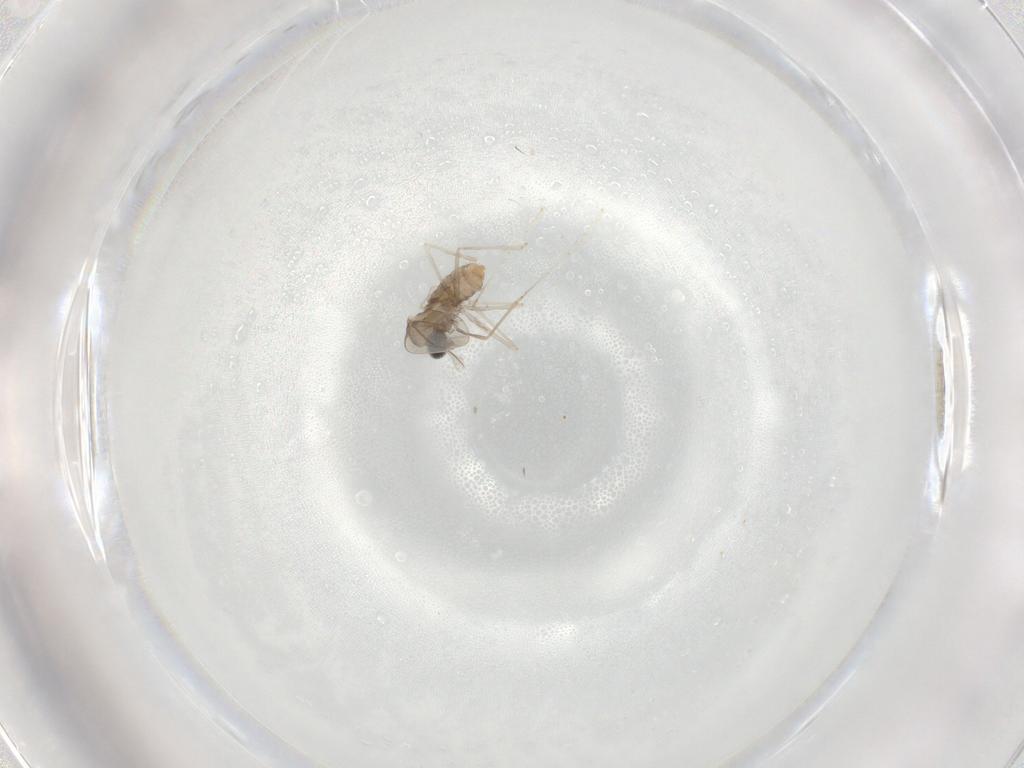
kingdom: Animalia
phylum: Arthropoda
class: Insecta
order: Diptera
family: Cecidomyiidae
